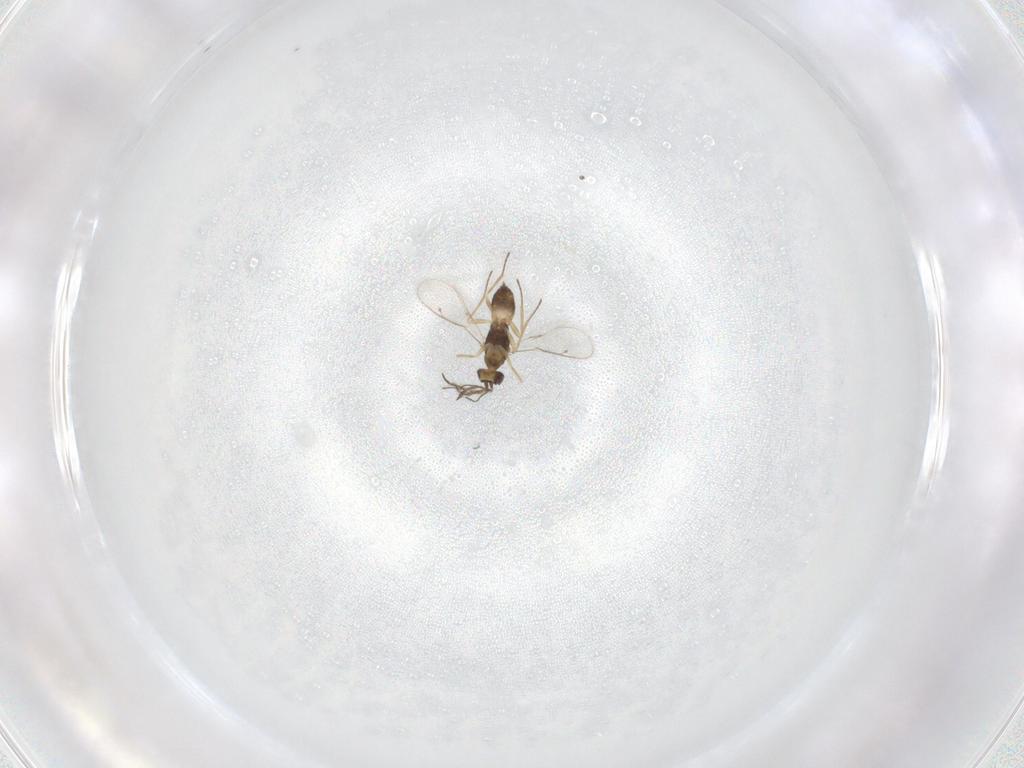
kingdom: Animalia
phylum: Arthropoda
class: Insecta
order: Hymenoptera
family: Eulophidae
